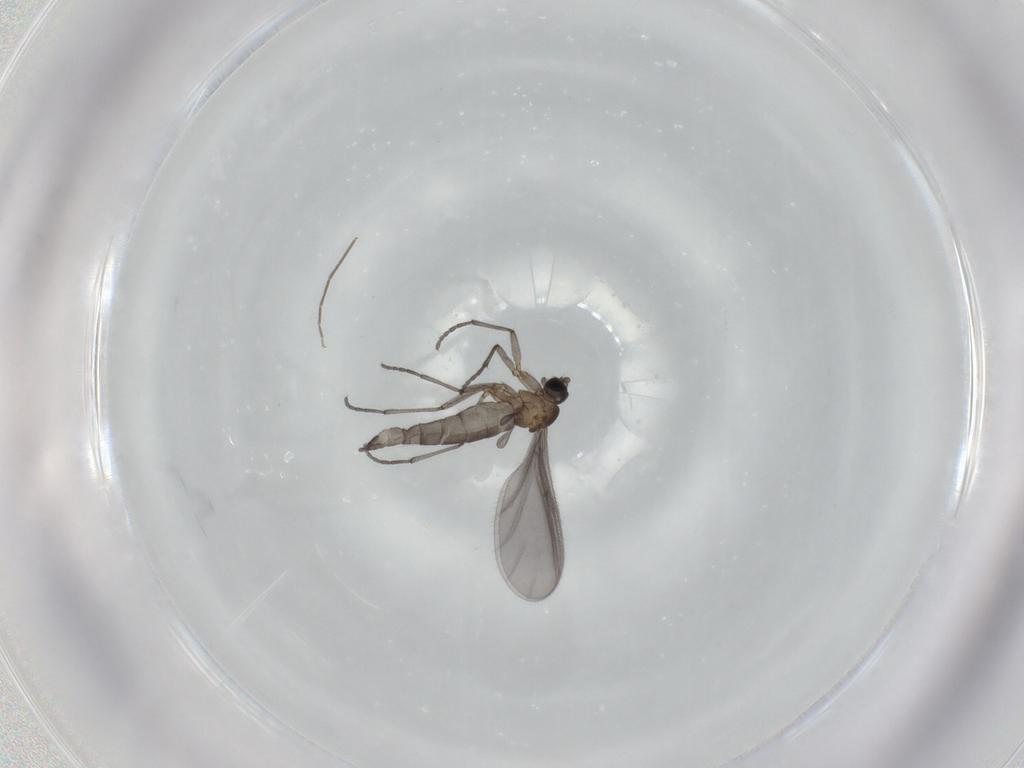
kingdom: Animalia
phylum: Arthropoda
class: Insecta
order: Diptera
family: Sciaridae
